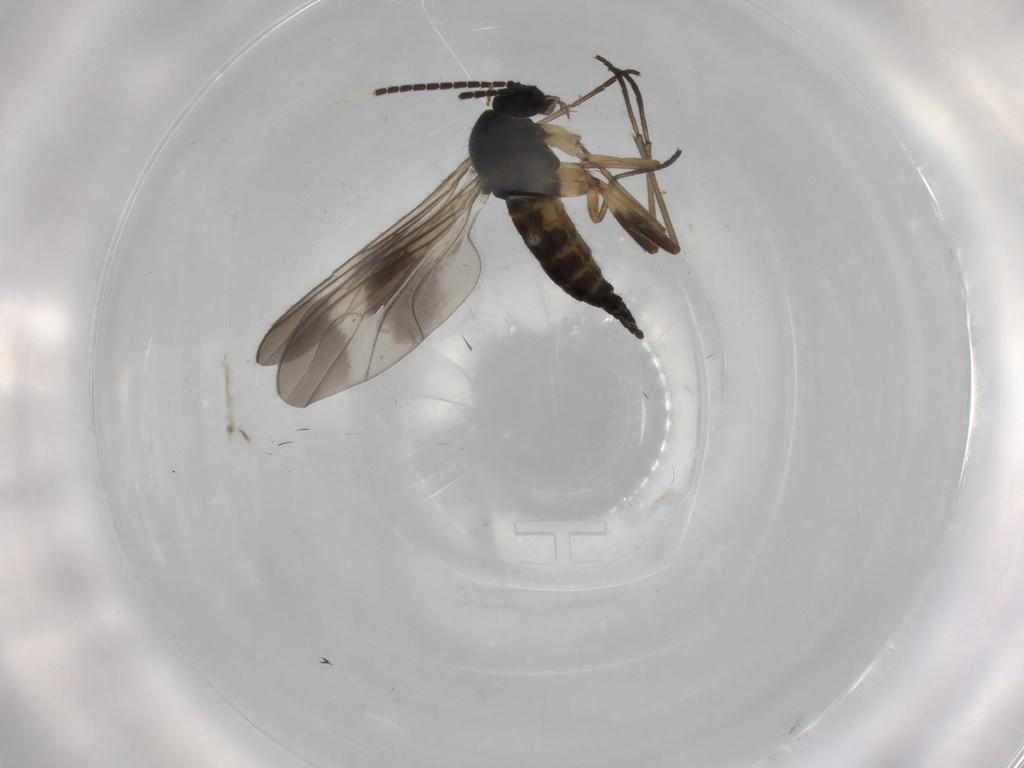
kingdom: Animalia
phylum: Arthropoda
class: Insecta
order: Diptera
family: Sciaridae
